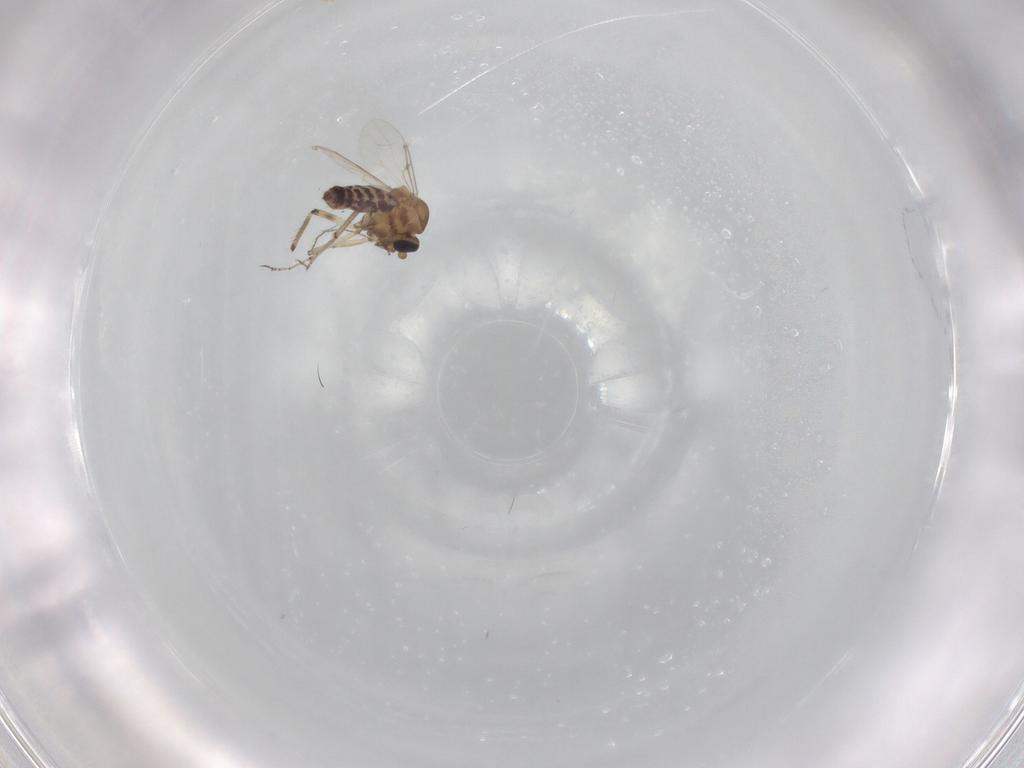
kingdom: Animalia
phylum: Arthropoda
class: Insecta
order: Diptera
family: Ceratopogonidae
